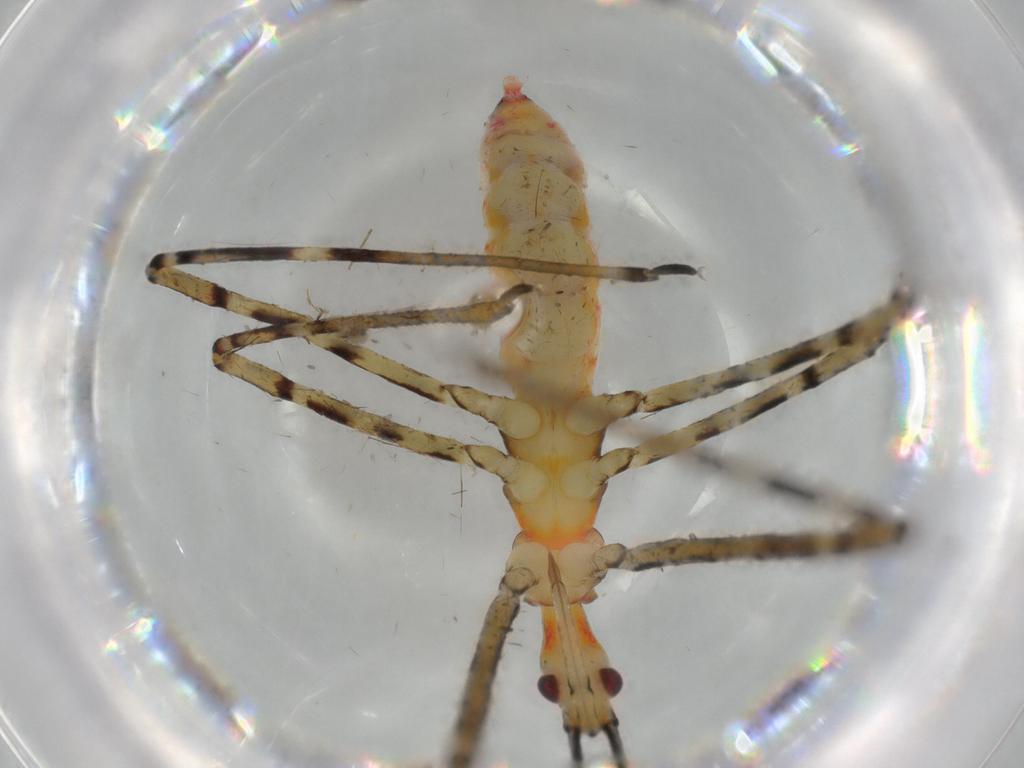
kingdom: Animalia
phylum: Arthropoda
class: Insecta
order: Hemiptera
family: Reduviidae
